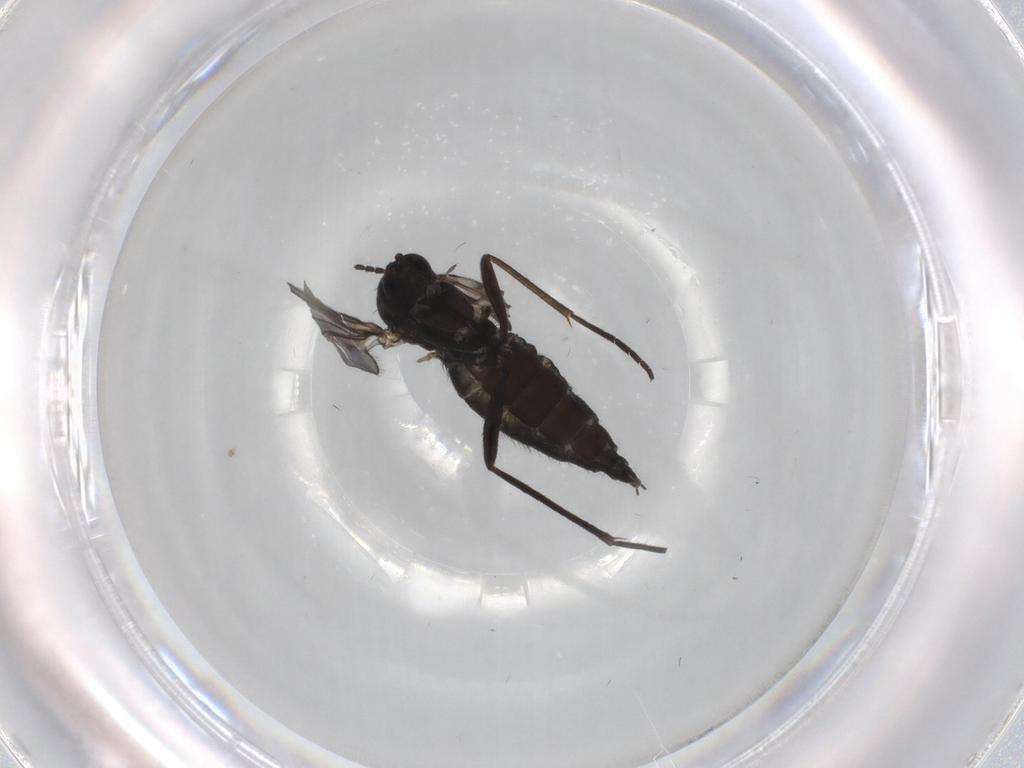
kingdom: Animalia
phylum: Arthropoda
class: Insecta
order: Diptera
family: Sciaridae
